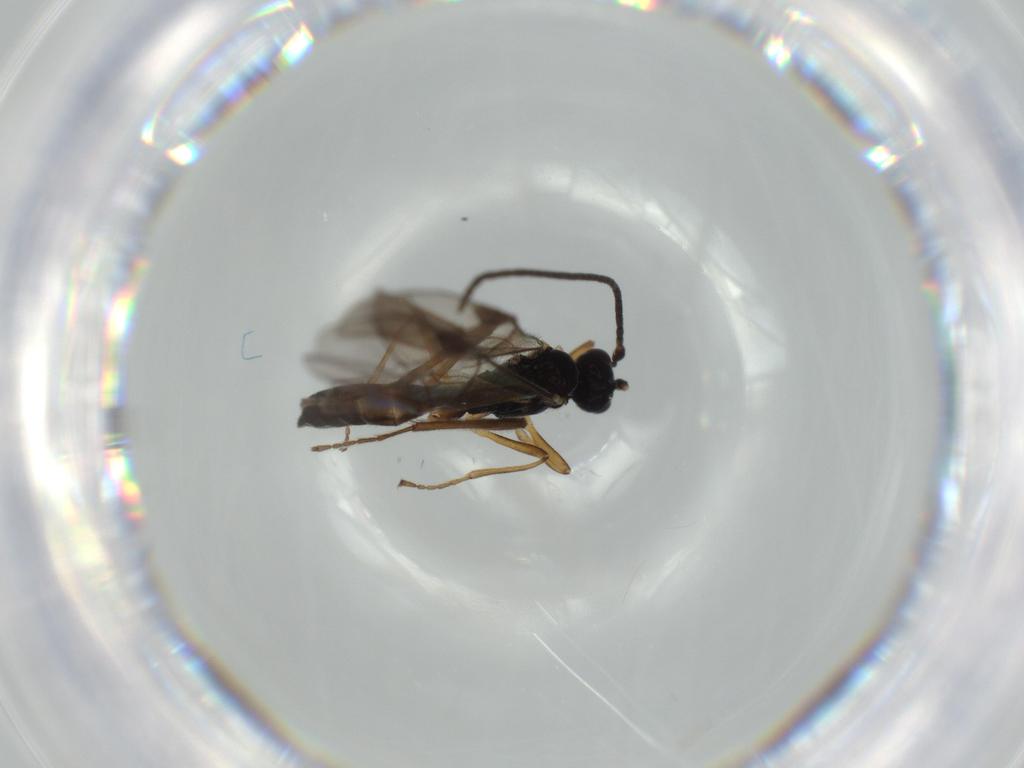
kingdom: Animalia
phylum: Arthropoda
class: Insecta
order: Hymenoptera
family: Ichneumonidae
